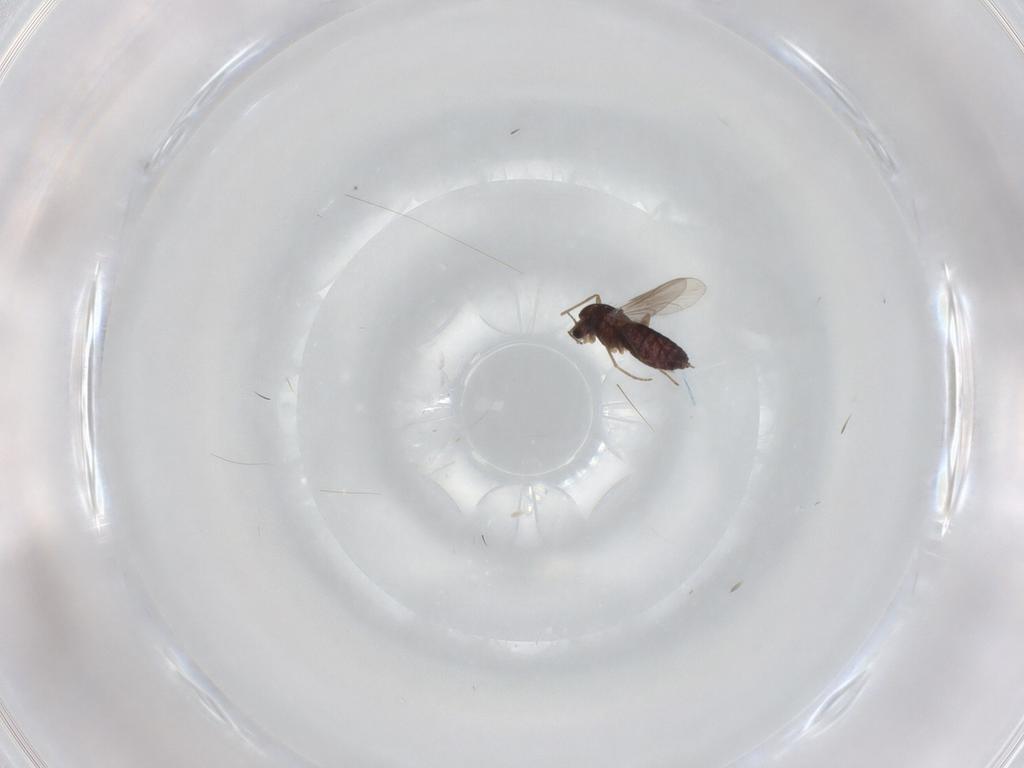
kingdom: Animalia
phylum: Arthropoda
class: Insecta
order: Diptera
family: Chironomidae
